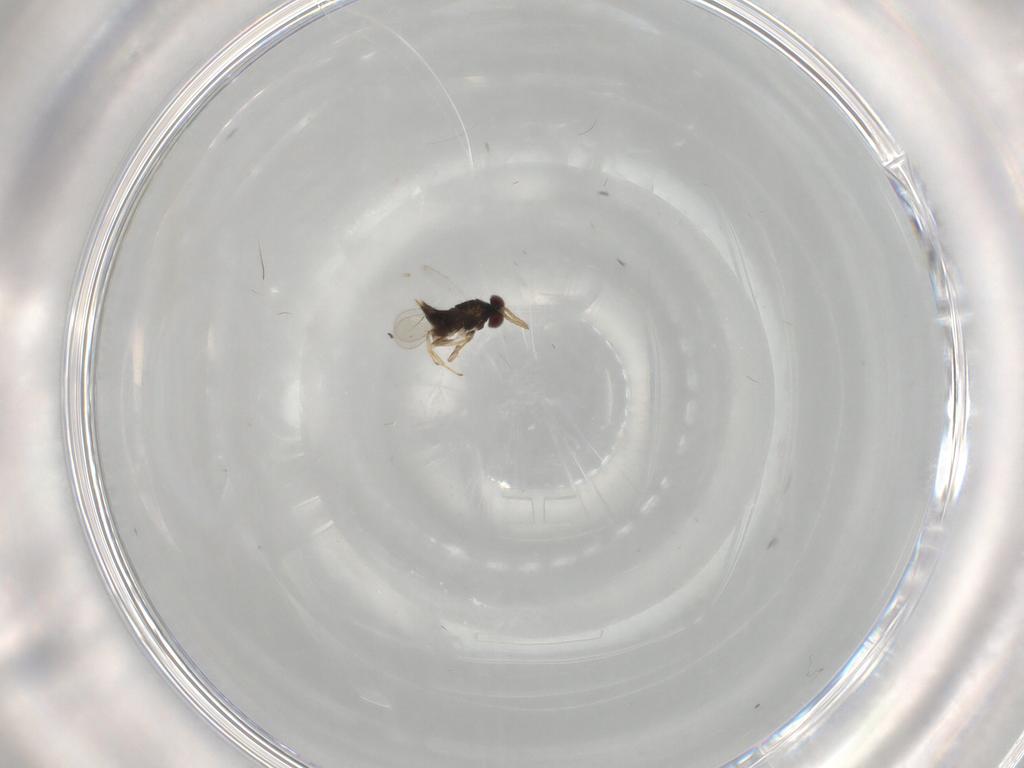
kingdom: Animalia
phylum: Arthropoda
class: Insecta
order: Hymenoptera
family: Aphelinidae
